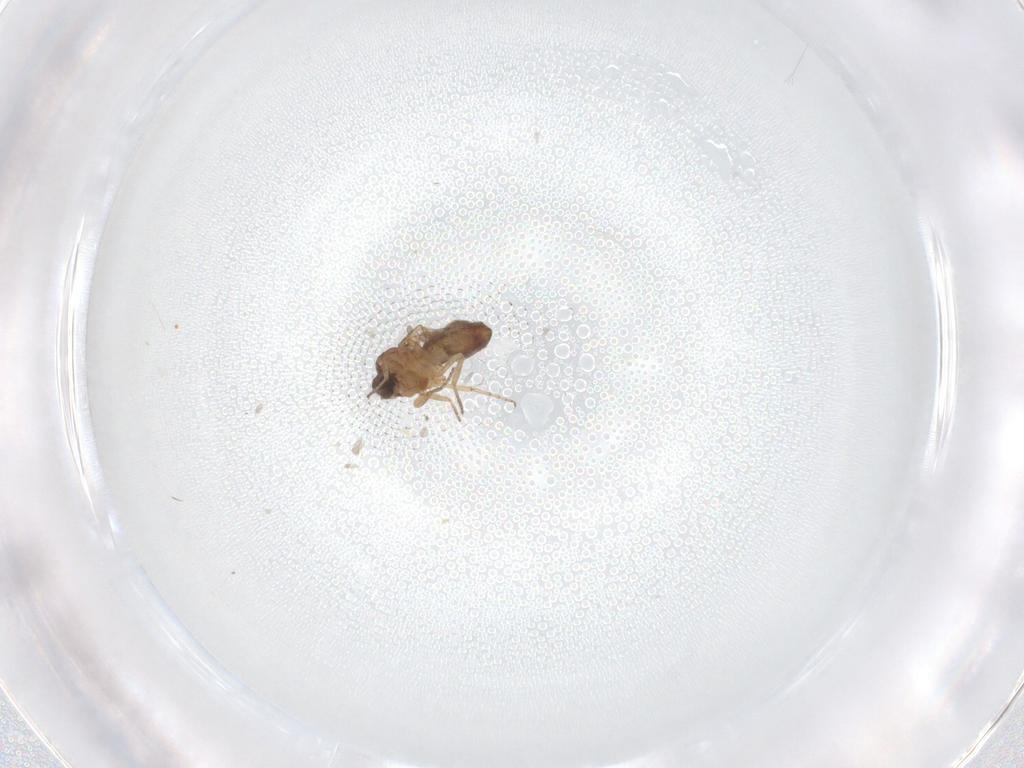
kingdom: Animalia
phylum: Arthropoda
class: Insecta
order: Diptera
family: Ceratopogonidae
